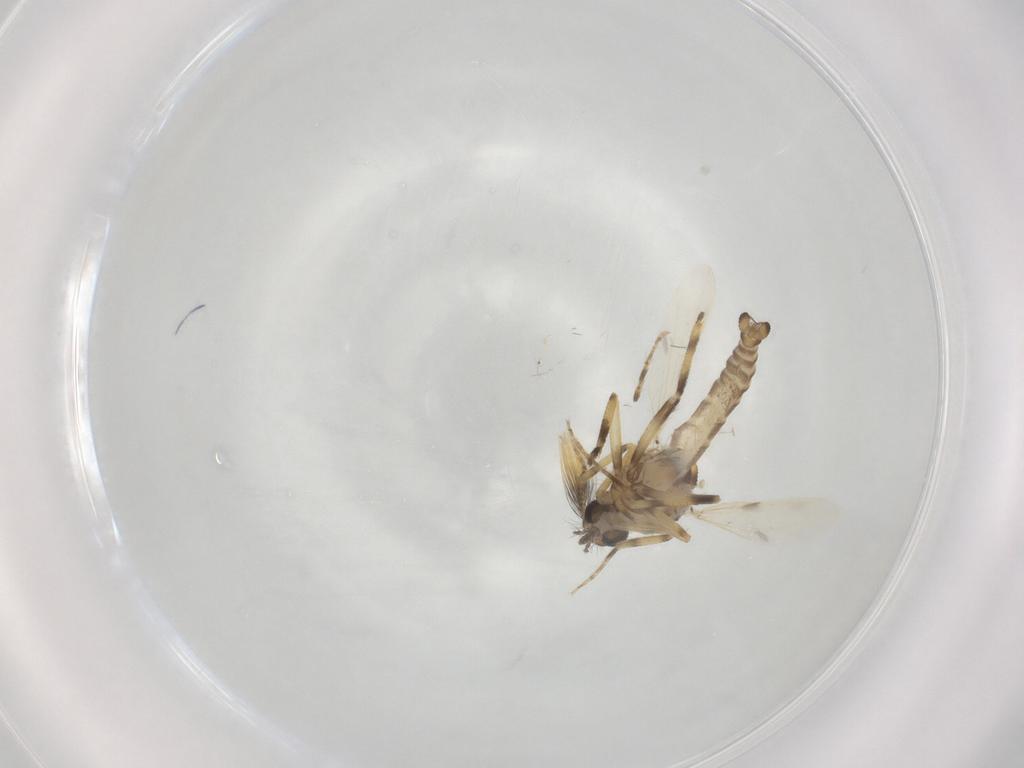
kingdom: Animalia
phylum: Arthropoda
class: Insecta
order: Diptera
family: Ceratopogonidae
